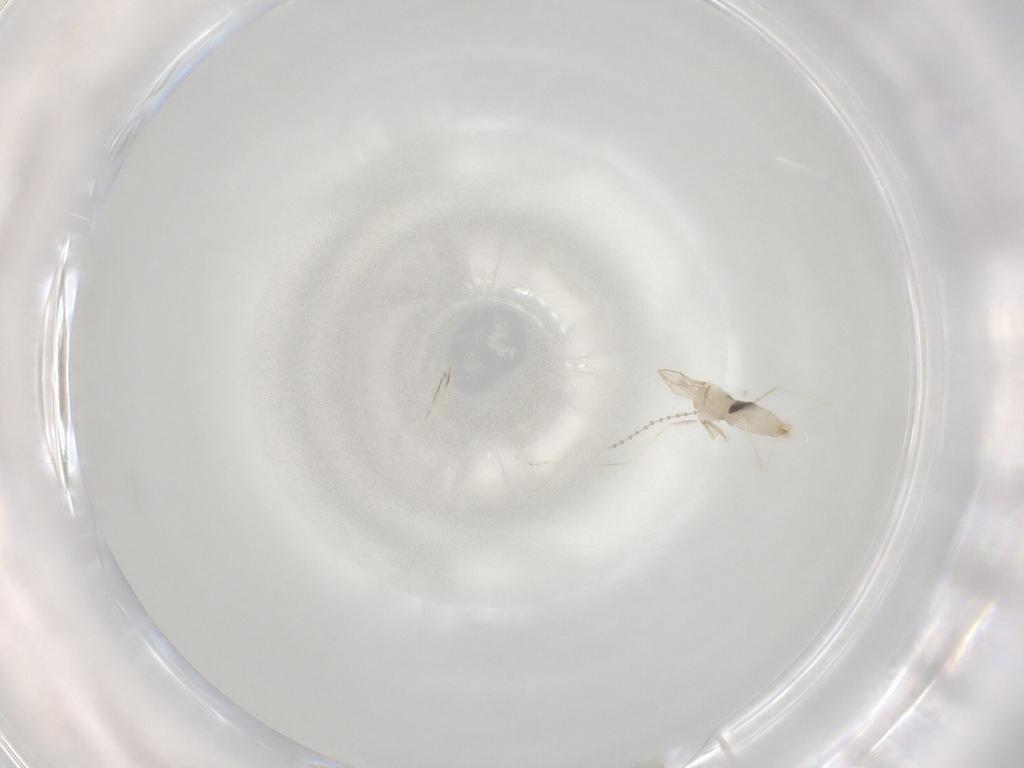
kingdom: Animalia
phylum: Arthropoda
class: Insecta
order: Diptera
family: Cecidomyiidae
